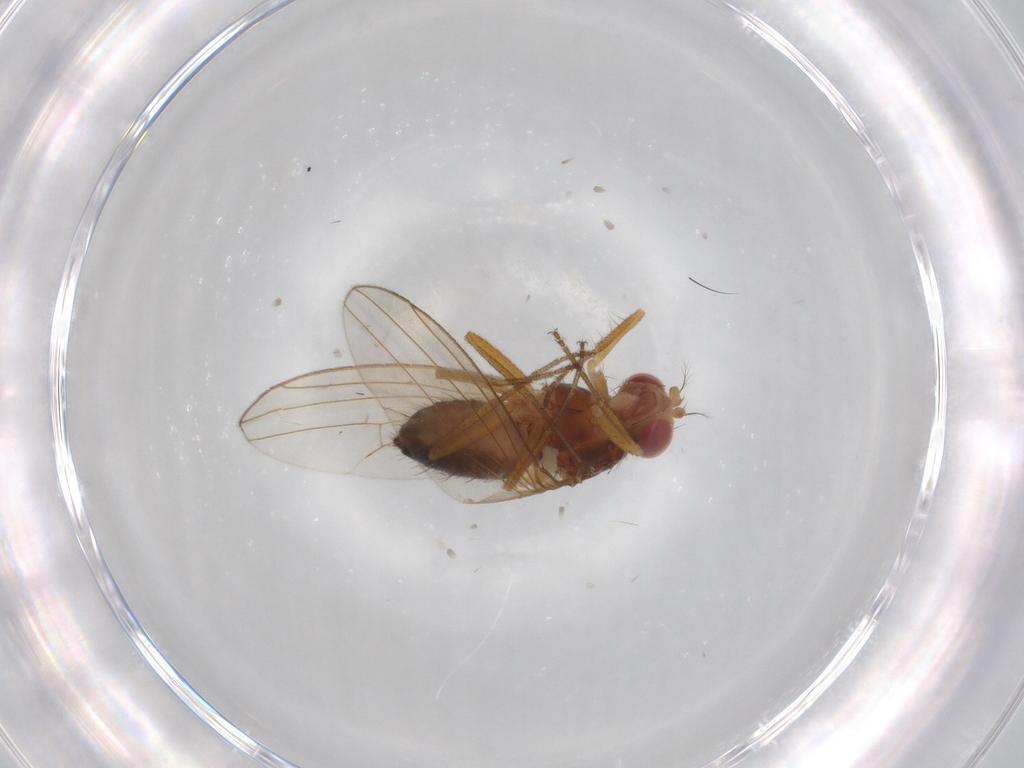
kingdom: Animalia
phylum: Arthropoda
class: Insecta
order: Diptera
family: Drosophilidae
